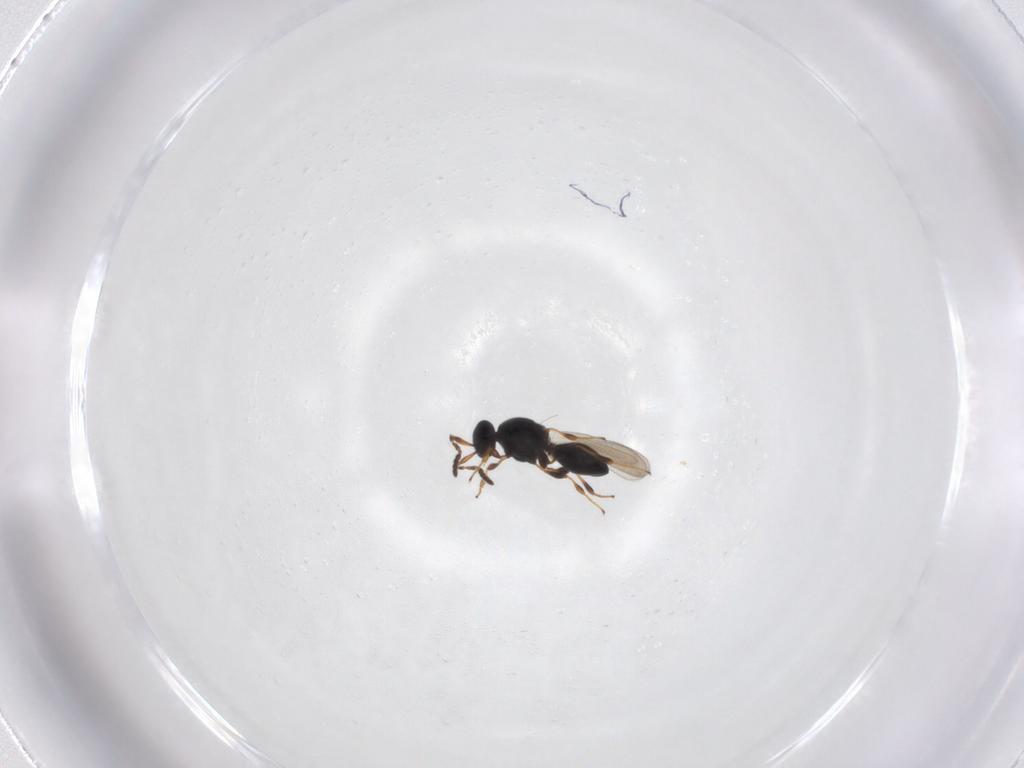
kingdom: Animalia
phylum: Arthropoda
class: Insecta
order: Hymenoptera
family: Platygastridae
